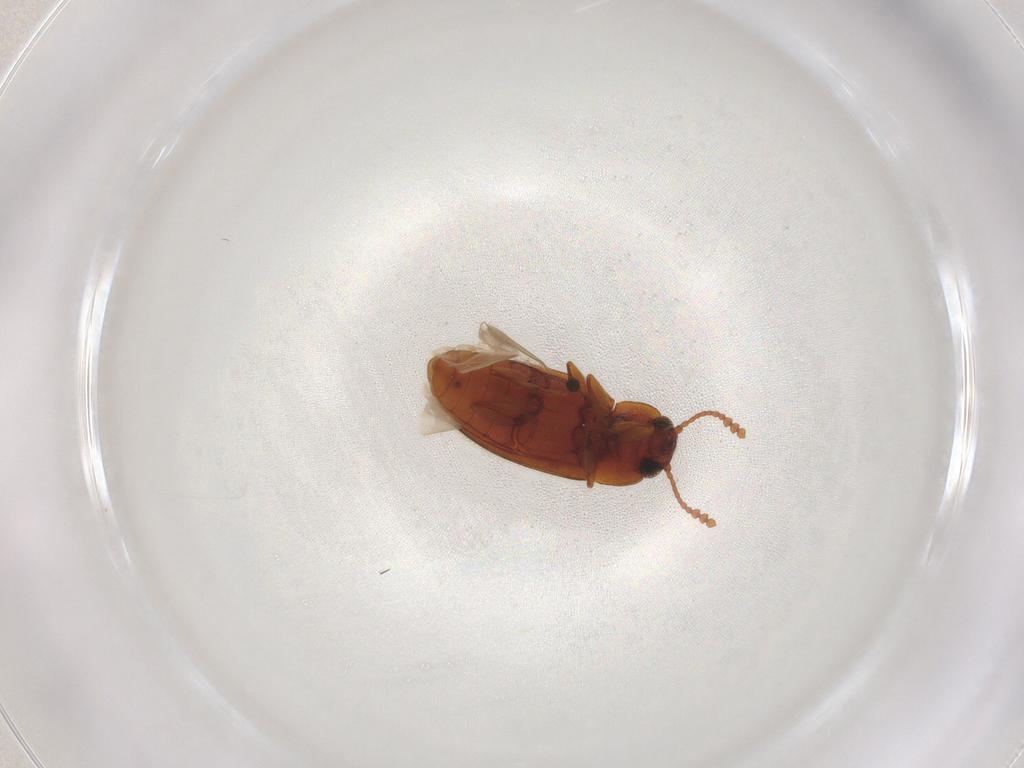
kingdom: Animalia
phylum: Arthropoda
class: Insecta
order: Coleoptera
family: Erotylidae
